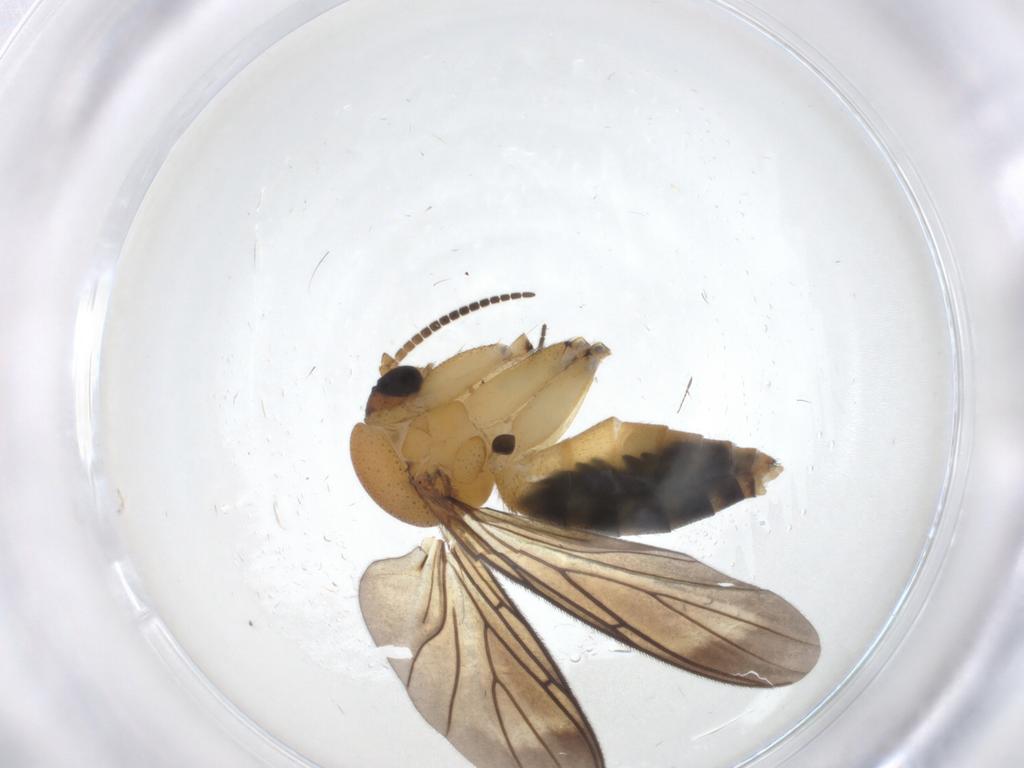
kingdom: Animalia
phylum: Arthropoda
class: Insecta
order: Diptera
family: Mycetophilidae
